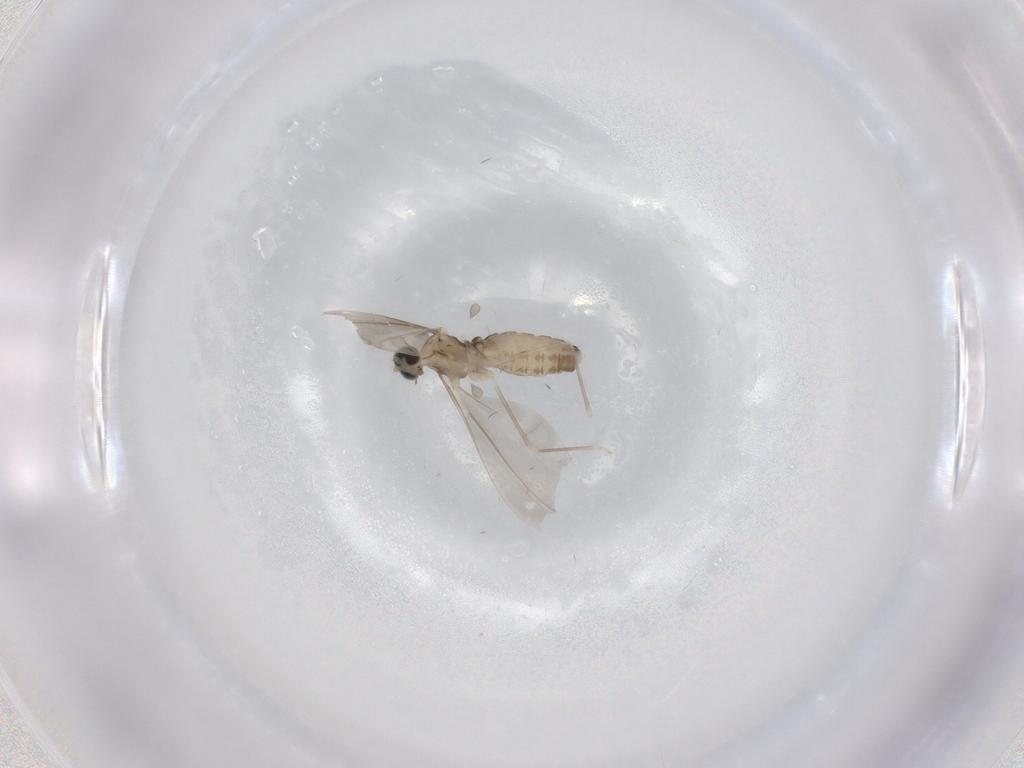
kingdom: Animalia
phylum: Arthropoda
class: Insecta
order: Diptera
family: Cecidomyiidae
